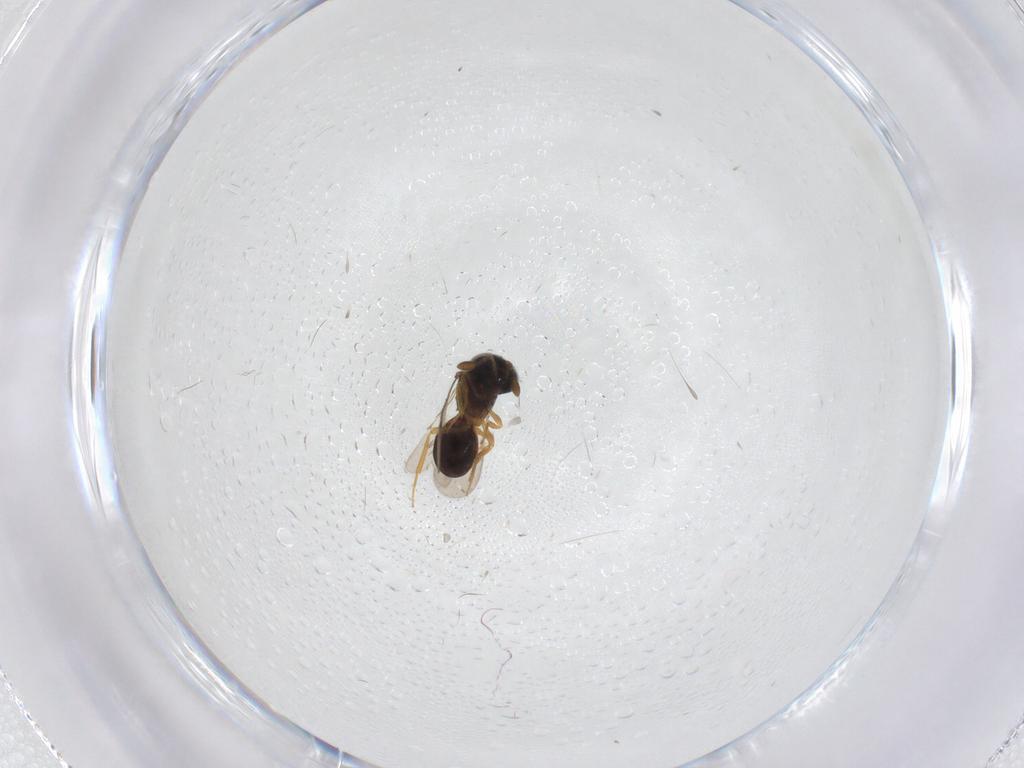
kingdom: Animalia
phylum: Arthropoda
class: Insecta
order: Hymenoptera
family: Scelionidae
